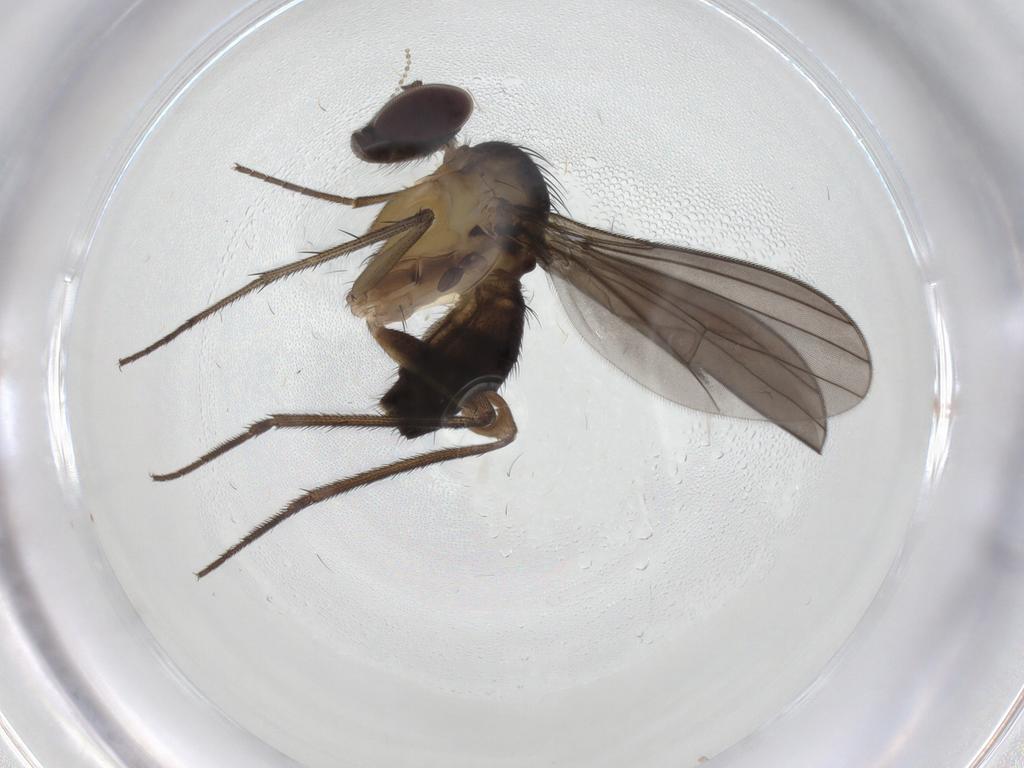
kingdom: Animalia
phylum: Arthropoda
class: Insecta
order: Diptera
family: Dolichopodidae
